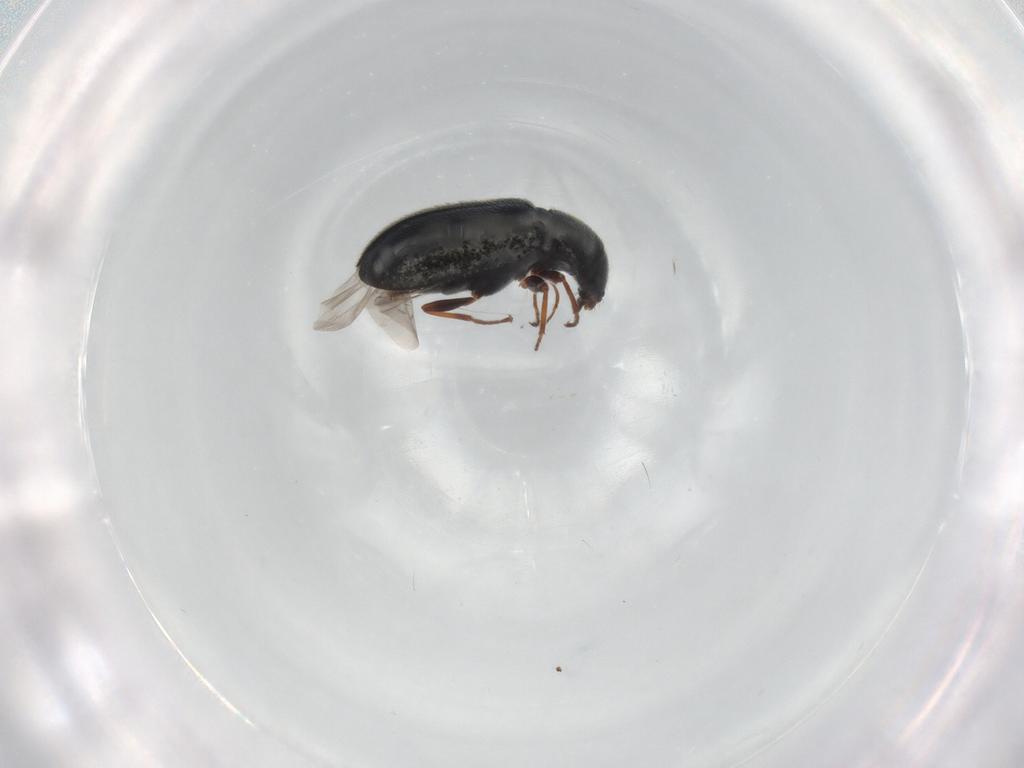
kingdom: Animalia
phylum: Arthropoda
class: Insecta
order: Coleoptera
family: Melyridae
